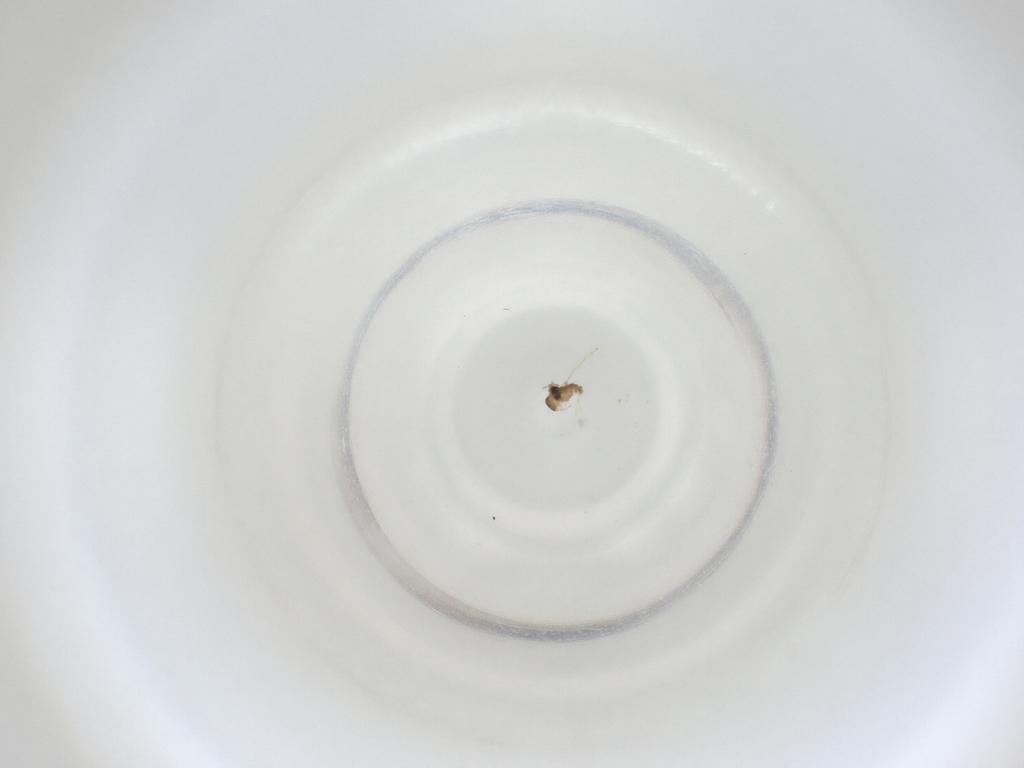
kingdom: Animalia
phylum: Arthropoda
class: Insecta
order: Diptera
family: Cecidomyiidae
